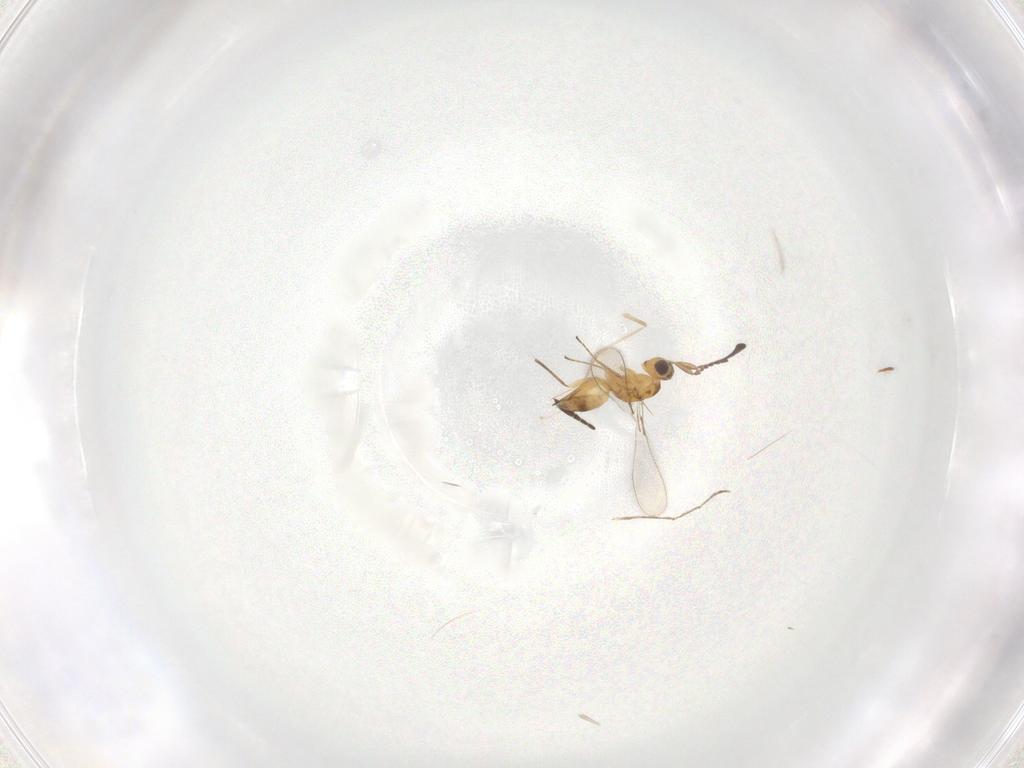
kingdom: Animalia
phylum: Arthropoda
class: Insecta
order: Hymenoptera
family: Mymaridae
